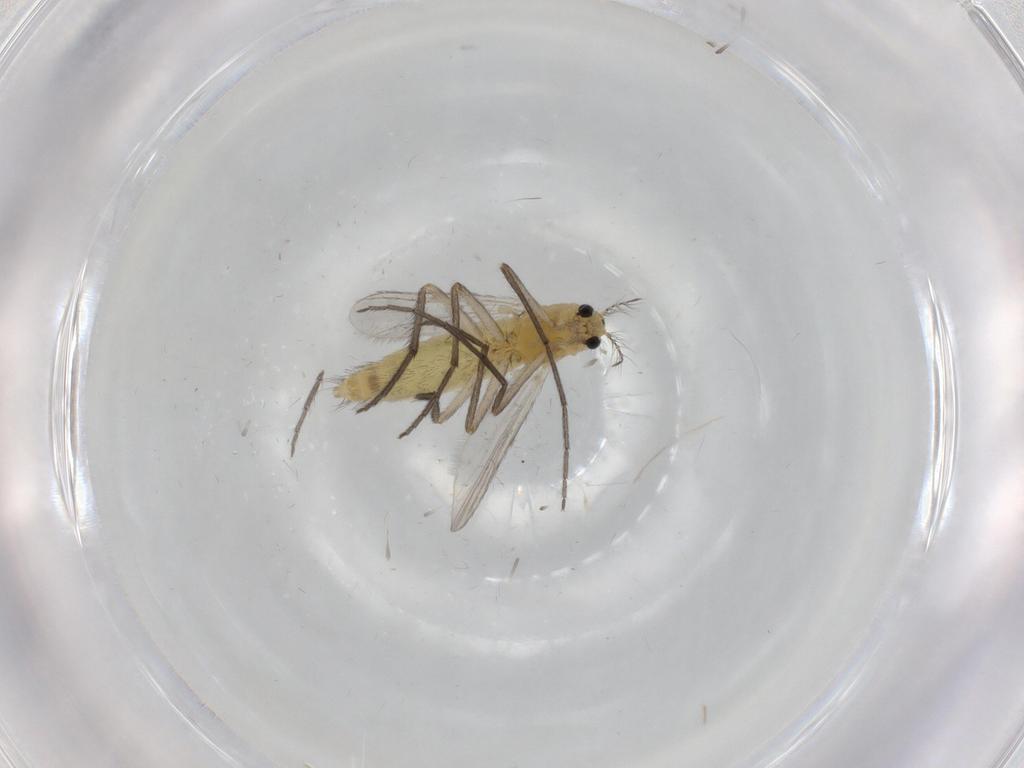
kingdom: Animalia
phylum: Arthropoda
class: Insecta
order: Diptera
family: Chironomidae
